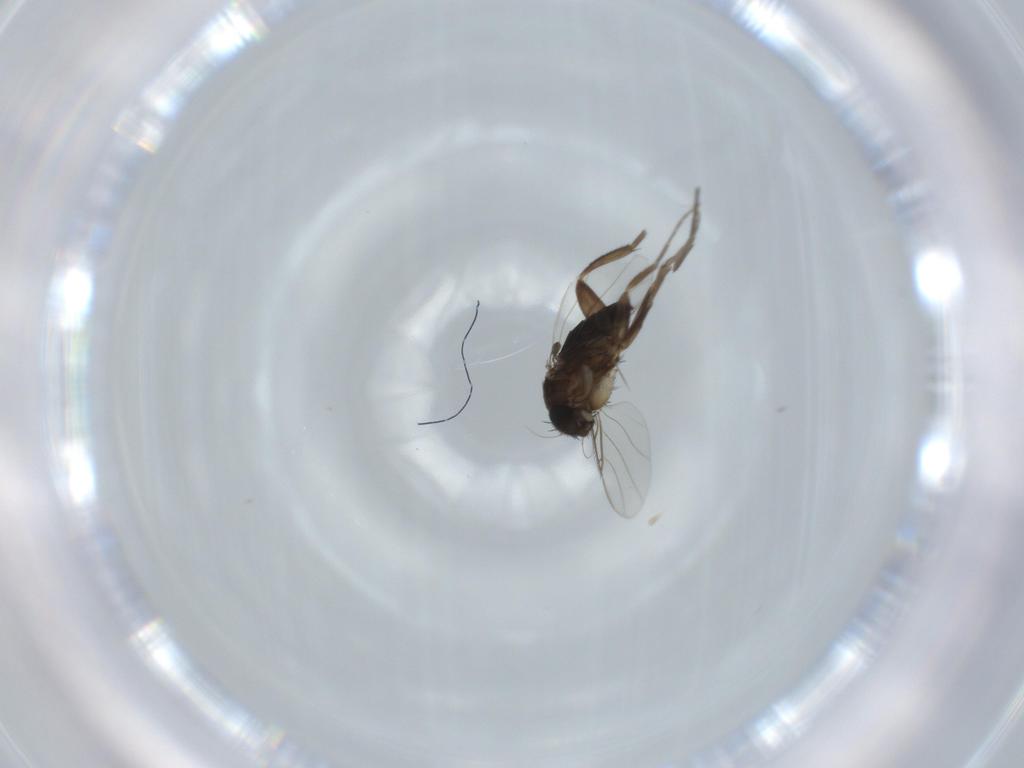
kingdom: Animalia
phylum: Arthropoda
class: Insecta
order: Diptera
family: Phoridae
